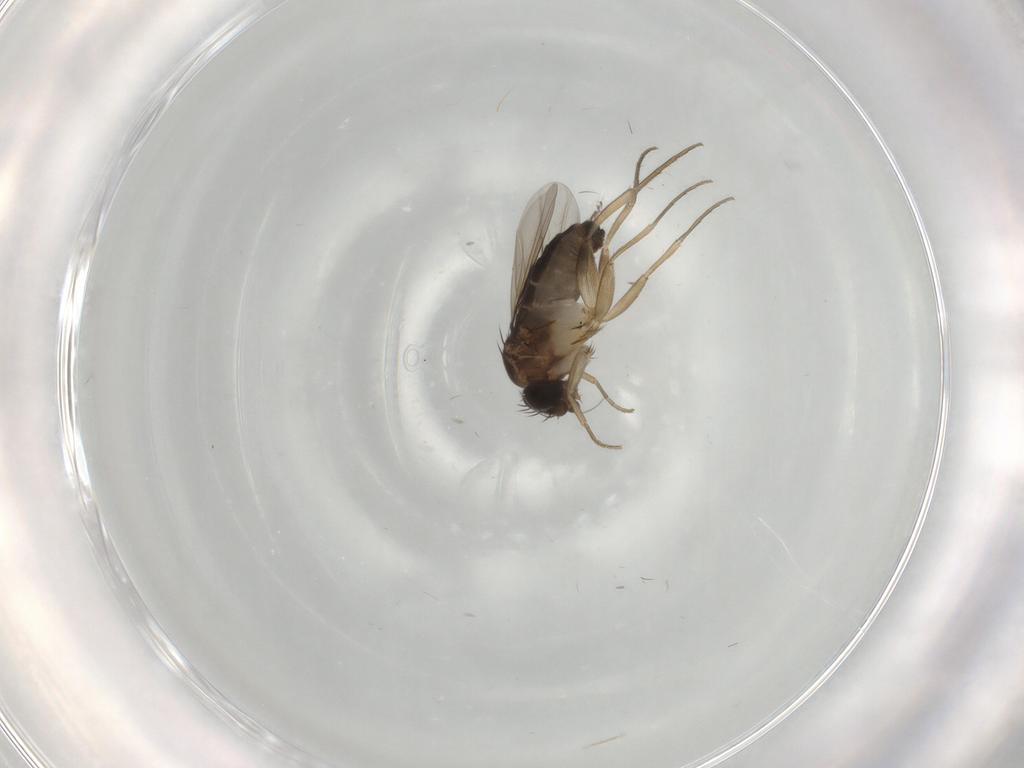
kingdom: Animalia
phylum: Arthropoda
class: Insecta
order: Diptera
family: Phoridae
